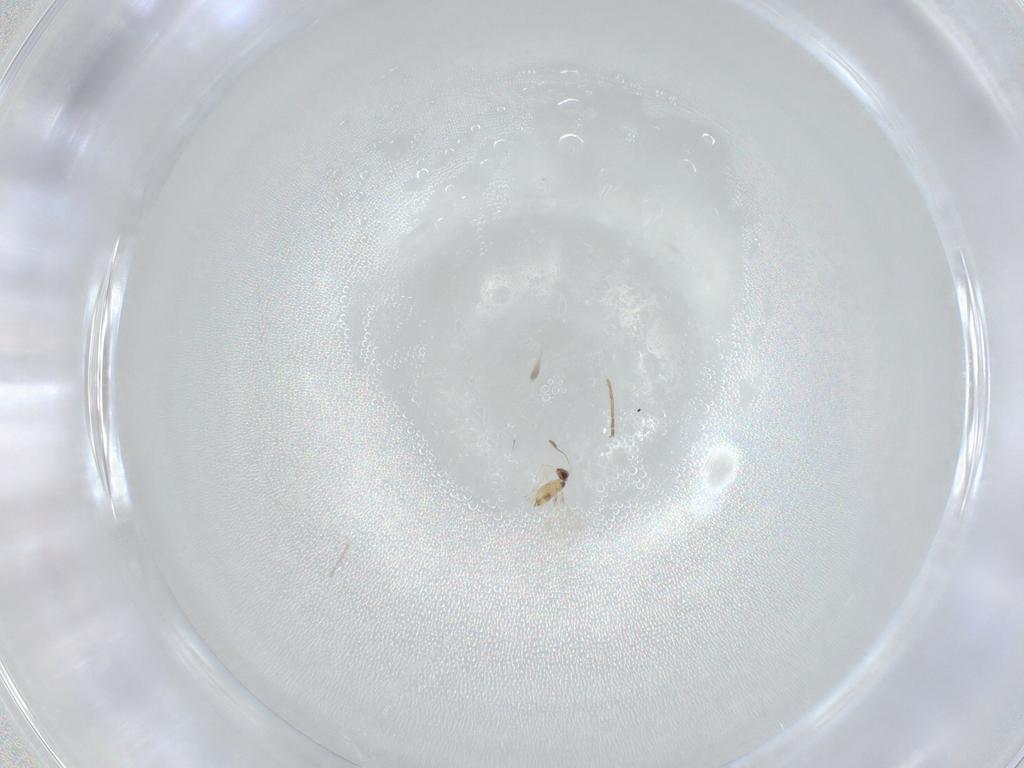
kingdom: Animalia
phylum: Arthropoda
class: Insecta
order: Hymenoptera
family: Mymaridae
